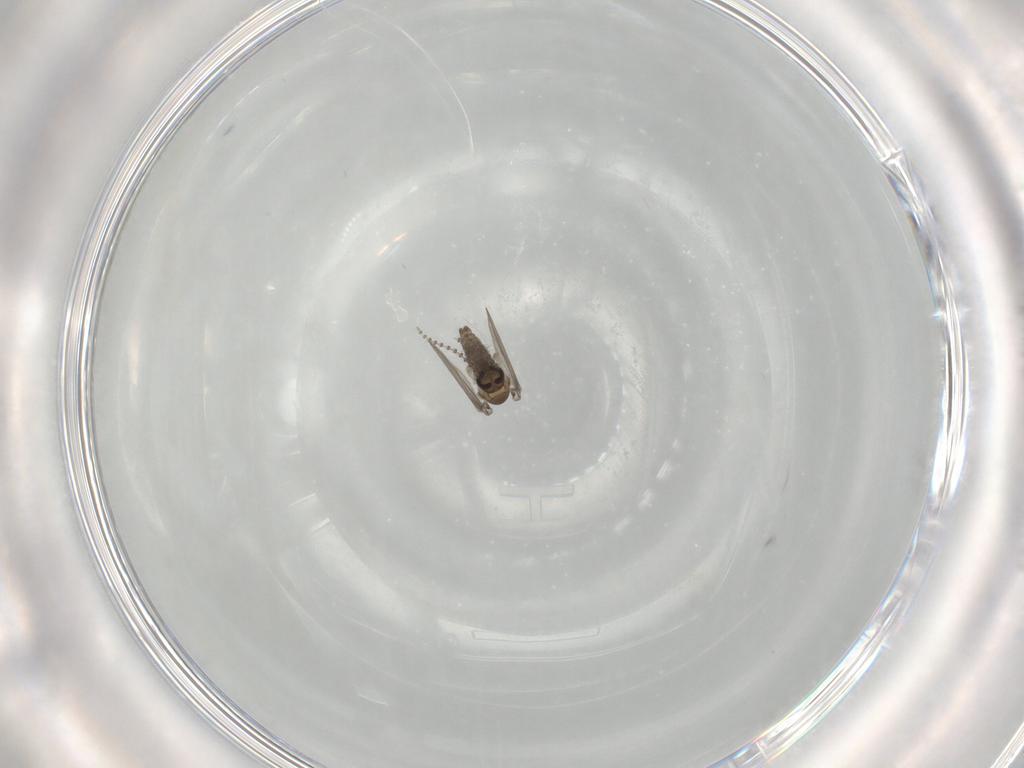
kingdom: Animalia
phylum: Arthropoda
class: Insecta
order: Diptera
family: Psychodidae
